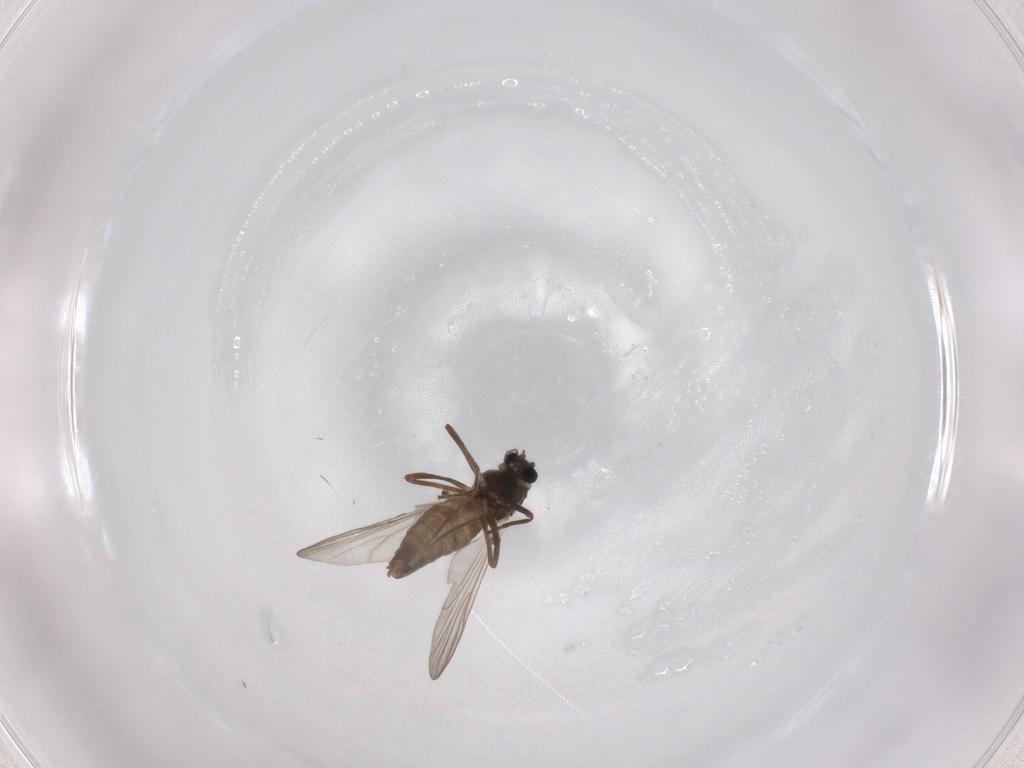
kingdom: Animalia
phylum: Arthropoda
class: Insecta
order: Diptera
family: Chironomidae
